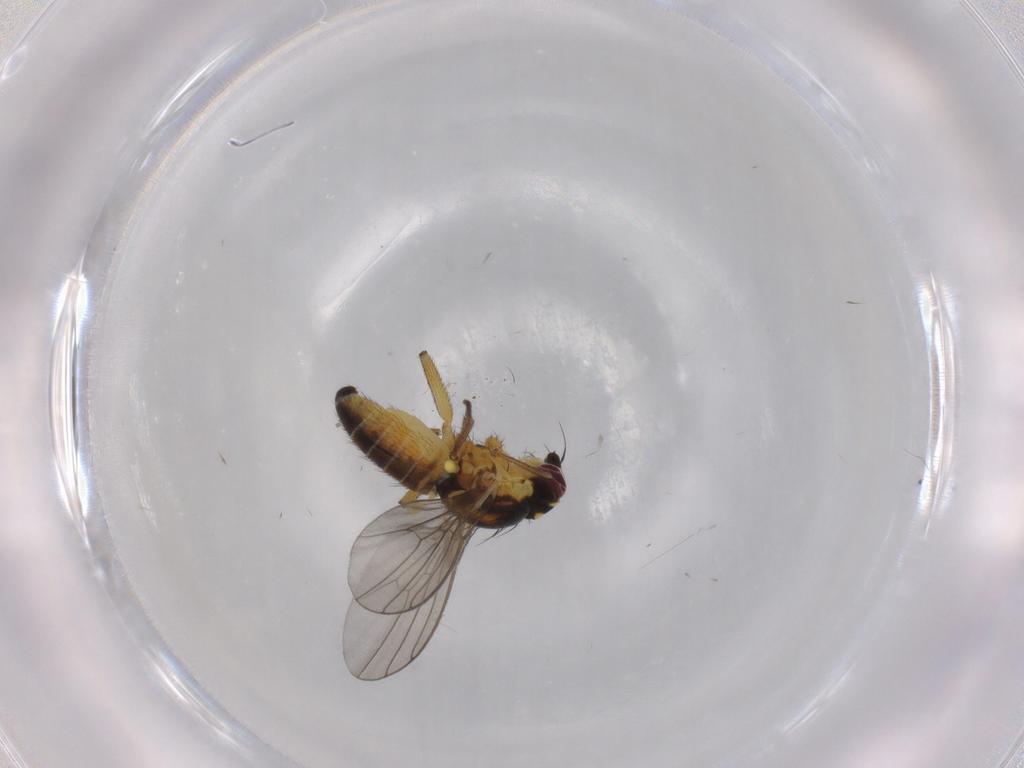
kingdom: Animalia
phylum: Arthropoda
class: Insecta
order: Diptera
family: Agromyzidae
